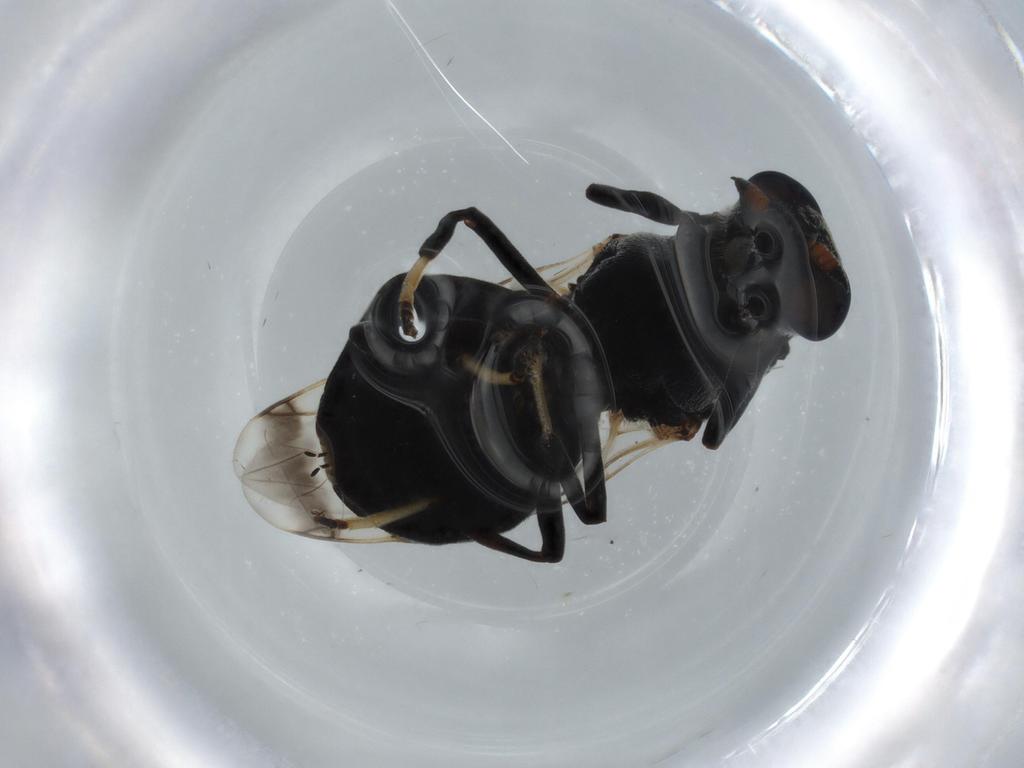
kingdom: Animalia
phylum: Arthropoda
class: Insecta
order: Diptera
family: Stratiomyidae
